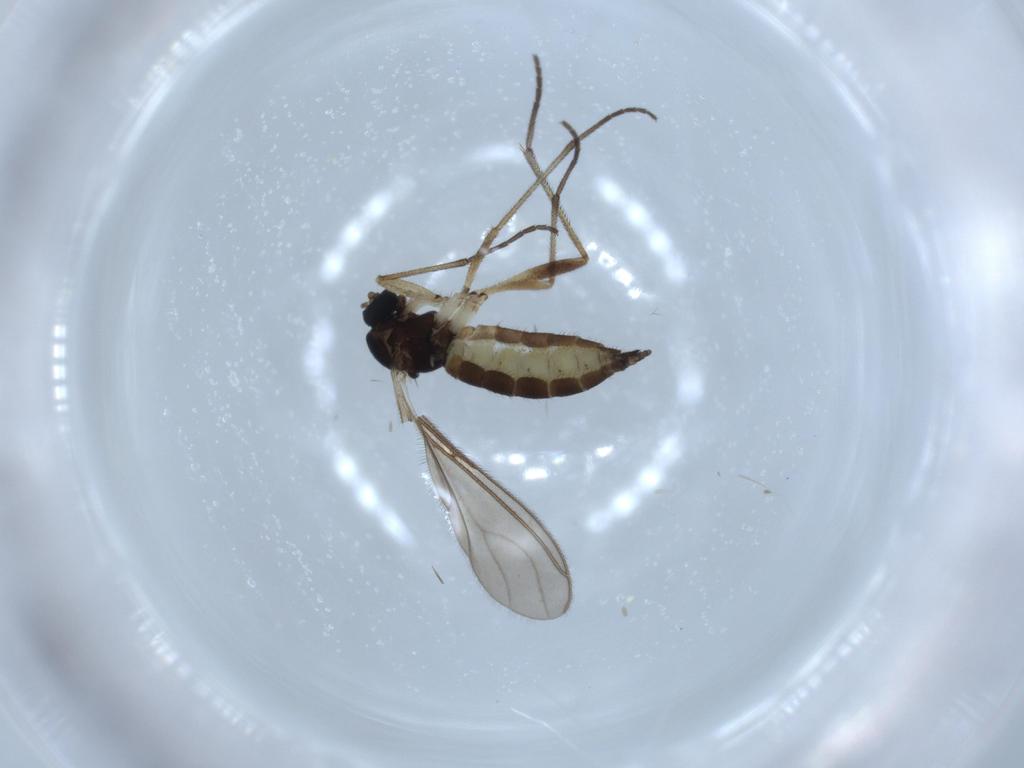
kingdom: Animalia
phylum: Arthropoda
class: Insecta
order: Diptera
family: Sciaridae
